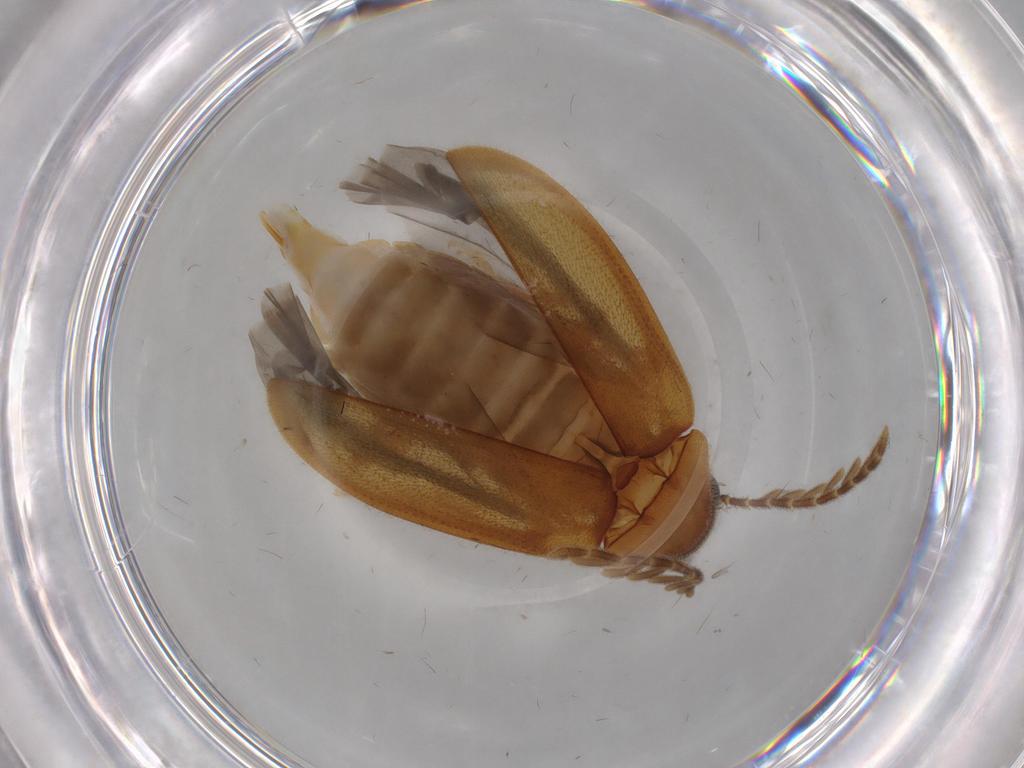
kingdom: Animalia
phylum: Arthropoda
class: Insecta
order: Coleoptera
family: Ptilodactylidae
